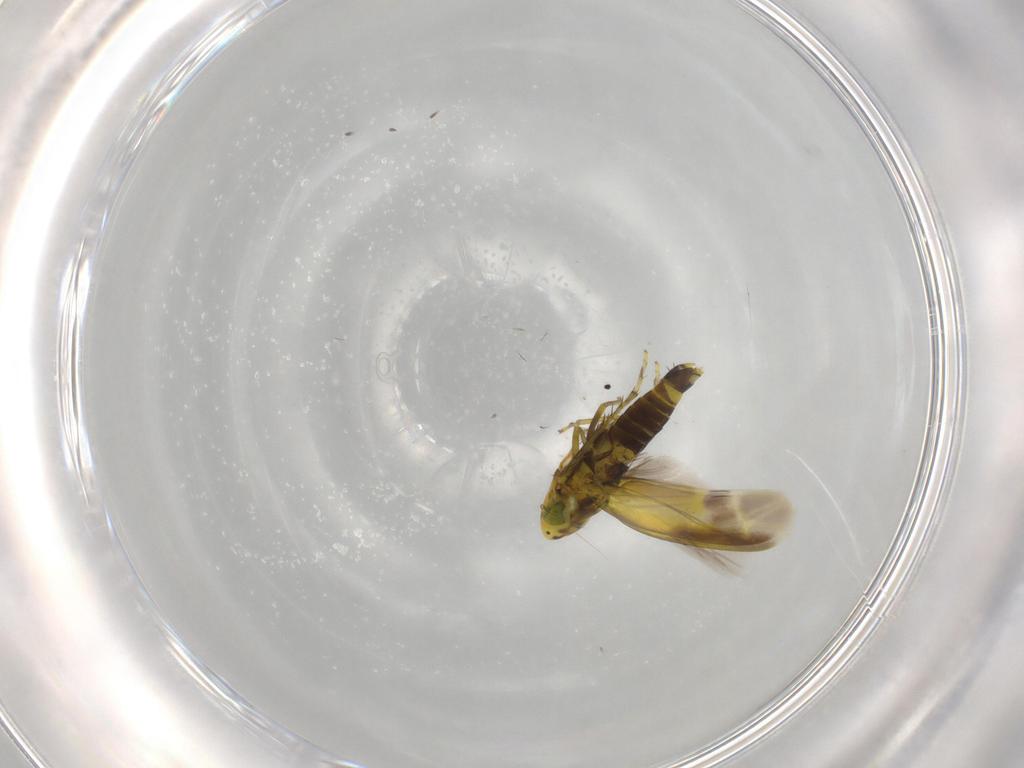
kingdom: Animalia
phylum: Arthropoda
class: Insecta
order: Hemiptera
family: Cicadellidae
